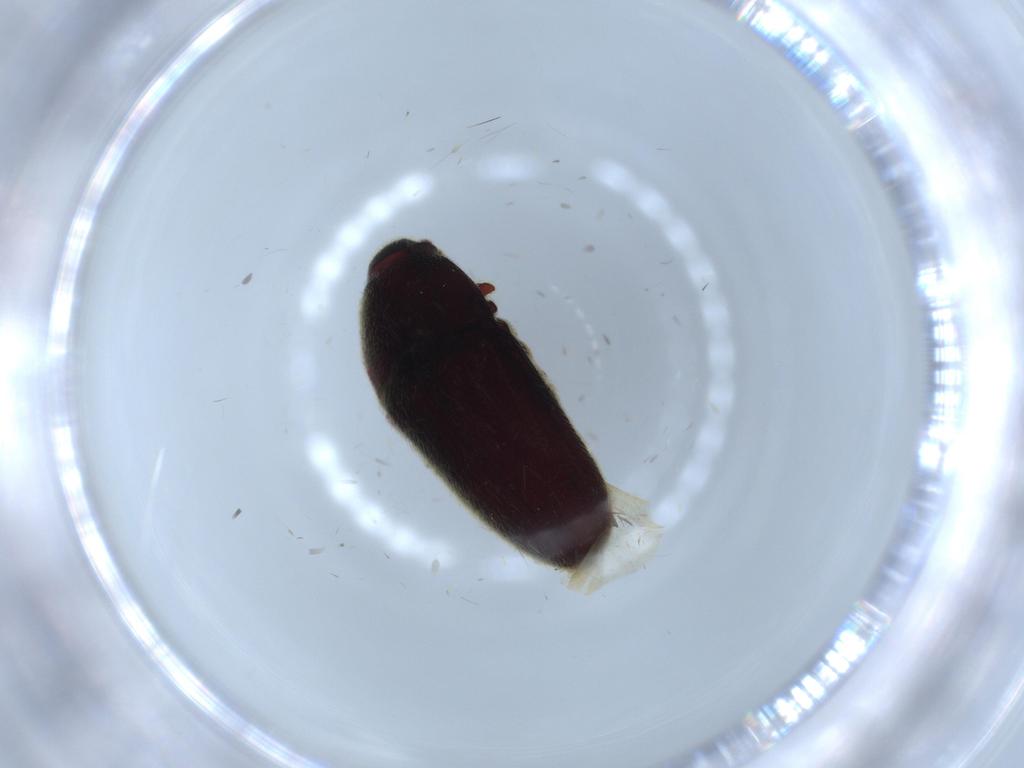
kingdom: Animalia
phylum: Arthropoda
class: Insecta
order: Coleoptera
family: Throscidae
